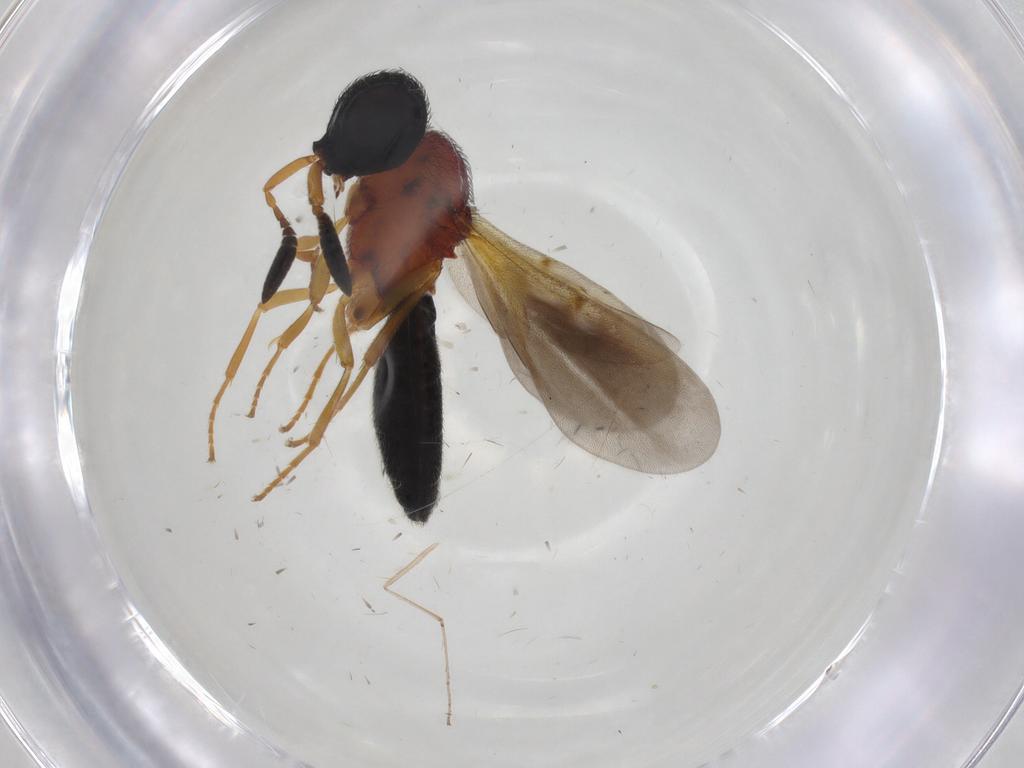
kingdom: Animalia
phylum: Arthropoda
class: Insecta
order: Hymenoptera
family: Scelionidae
